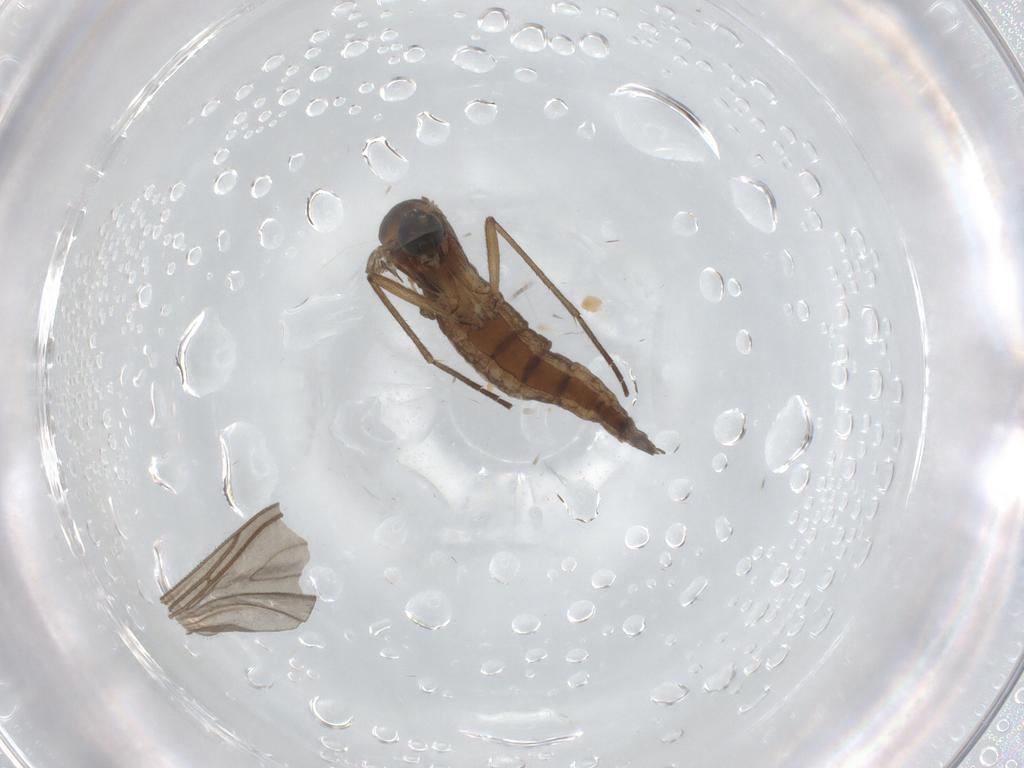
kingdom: Animalia
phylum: Arthropoda
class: Insecta
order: Diptera
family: Sciaridae
